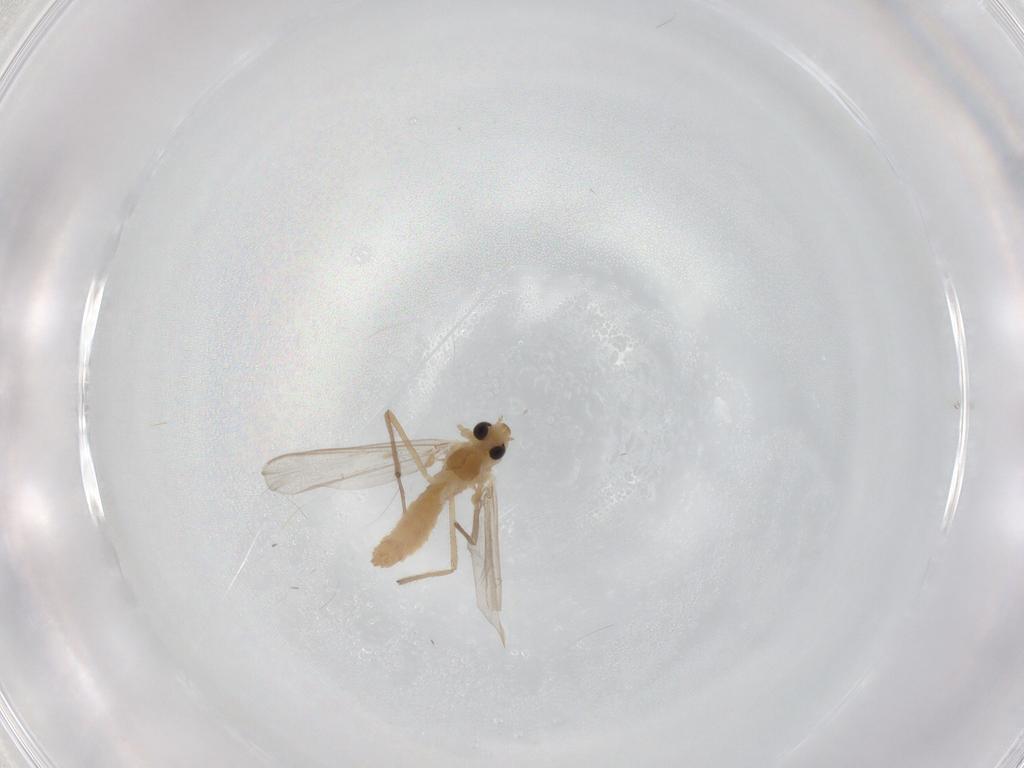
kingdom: Animalia
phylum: Arthropoda
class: Insecta
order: Diptera
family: Chironomidae
